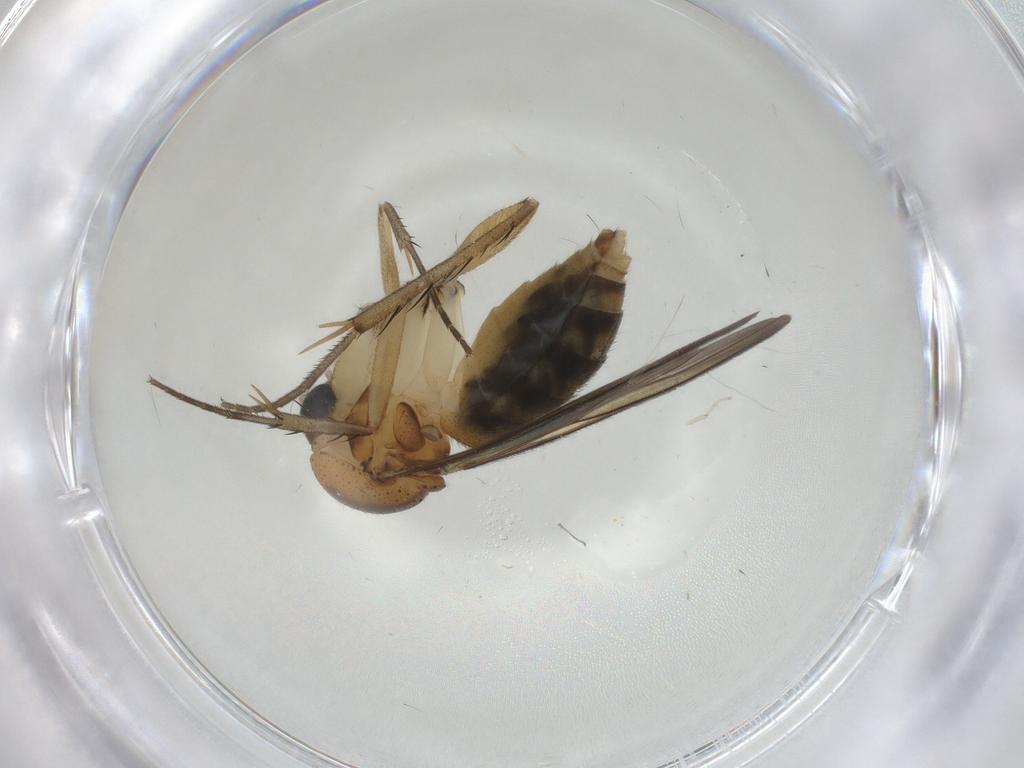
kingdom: Animalia
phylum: Arthropoda
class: Insecta
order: Diptera
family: Mycetophilidae
